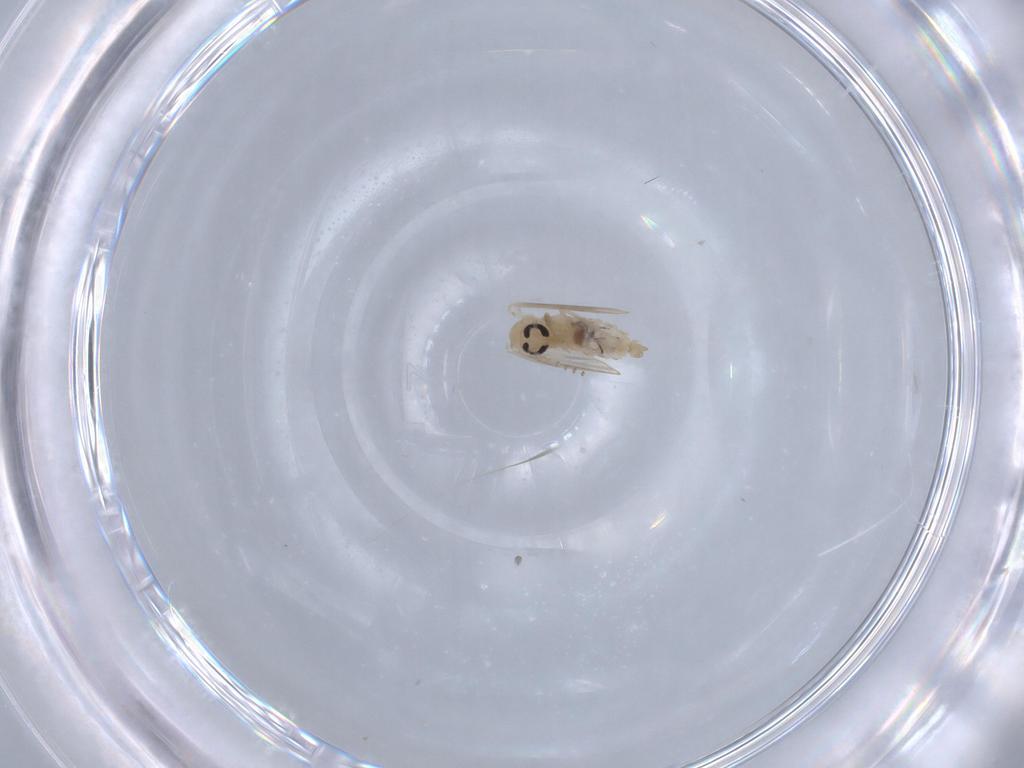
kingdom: Animalia
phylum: Arthropoda
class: Insecta
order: Diptera
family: Psychodidae
